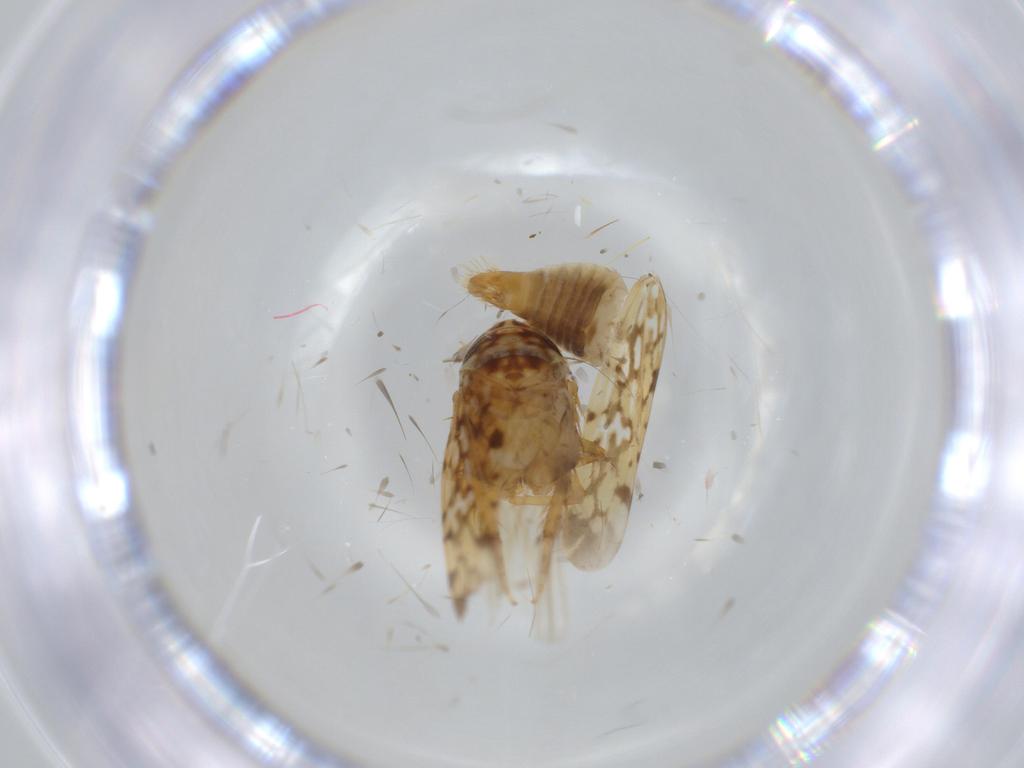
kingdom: Animalia
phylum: Arthropoda
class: Insecta
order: Hemiptera
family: Cicadellidae
